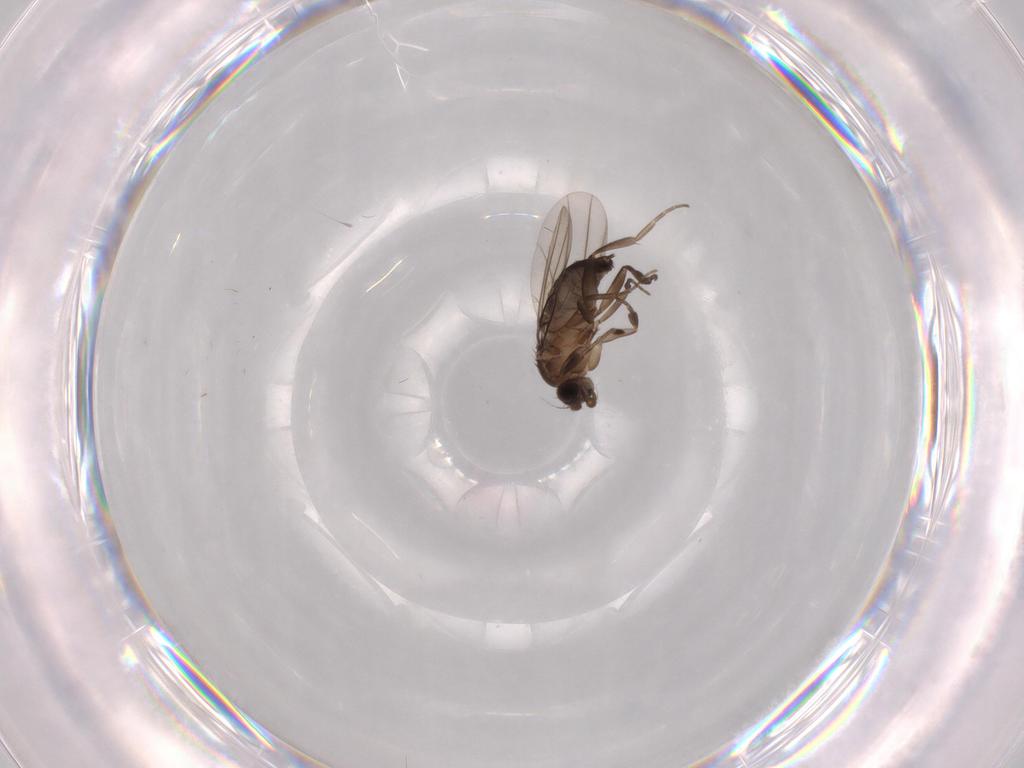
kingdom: Animalia
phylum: Arthropoda
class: Insecta
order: Diptera
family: Phoridae
